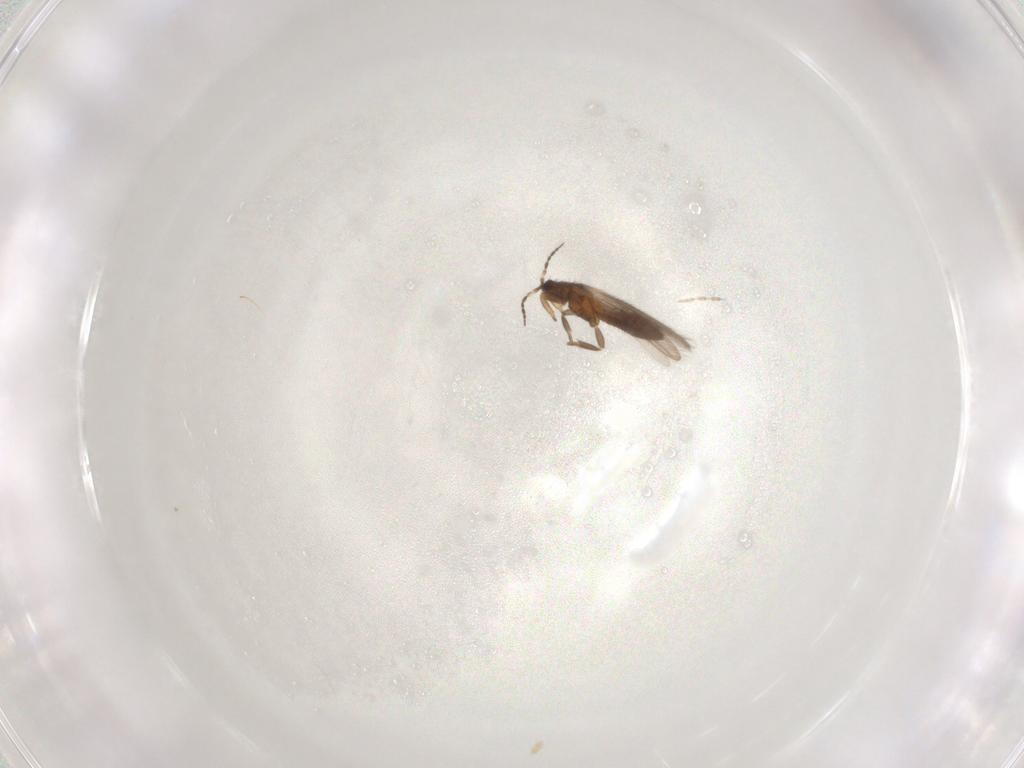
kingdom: Animalia
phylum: Arthropoda
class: Insecta
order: Thysanoptera
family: Melanthripidae
